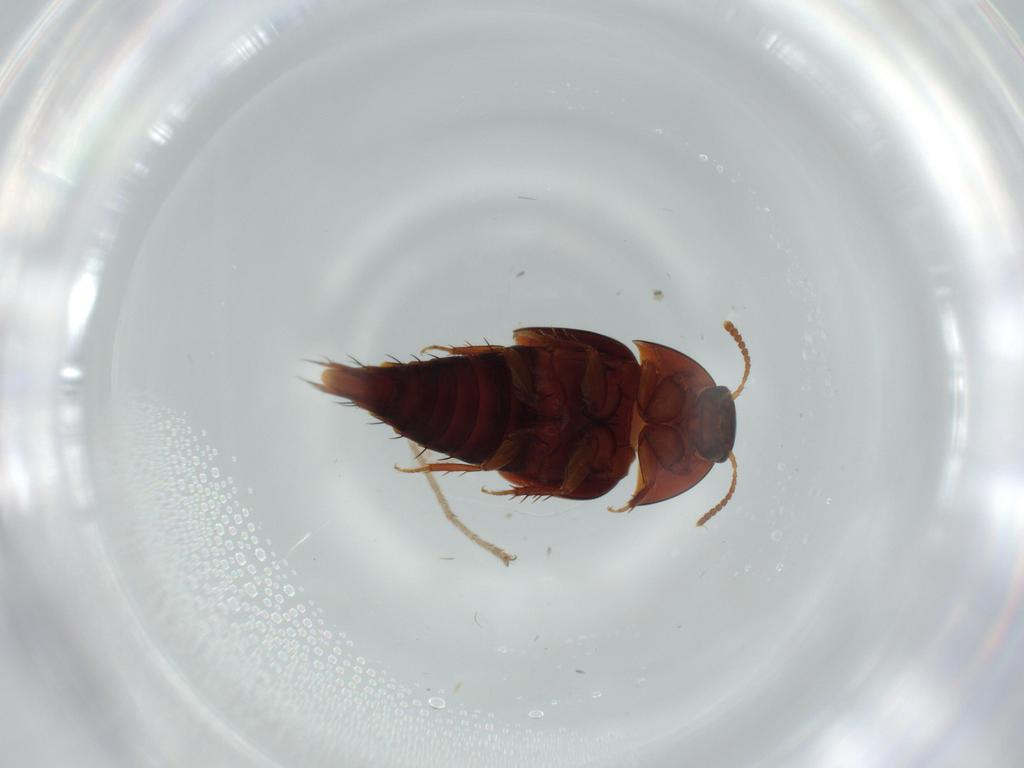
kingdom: Animalia
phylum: Arthropoda
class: Insecta
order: Coleoptera
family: Staphylinidae
